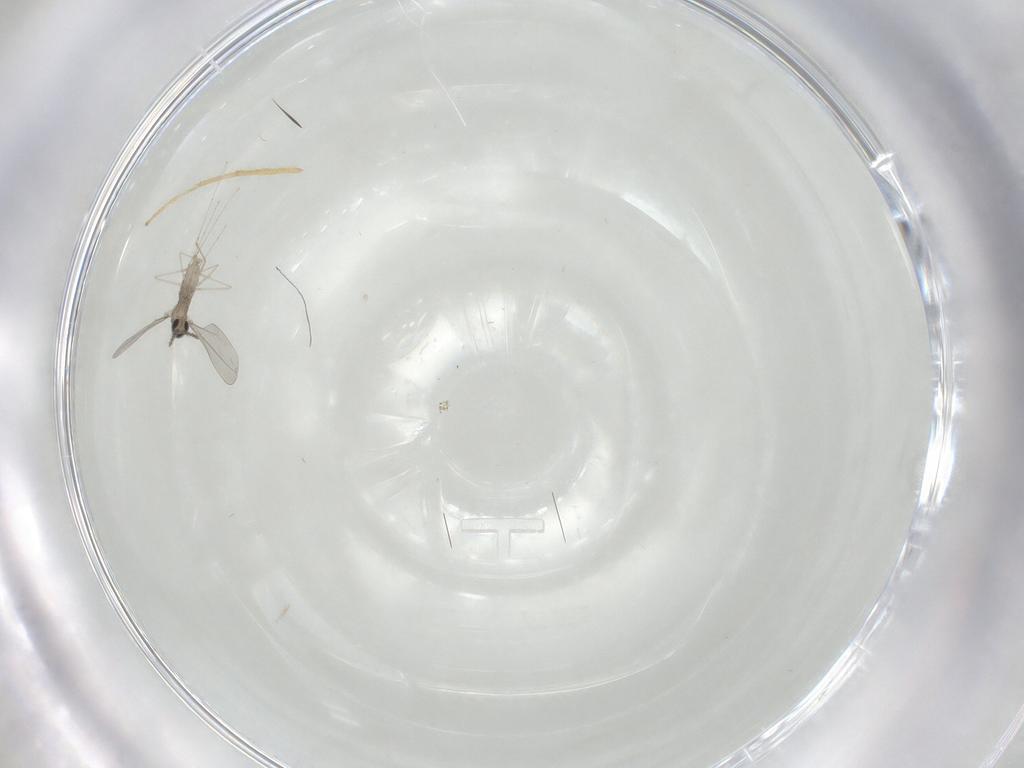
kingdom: Animalia
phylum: Arthropoda
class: Insecta
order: Diptera
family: Chironomidae
